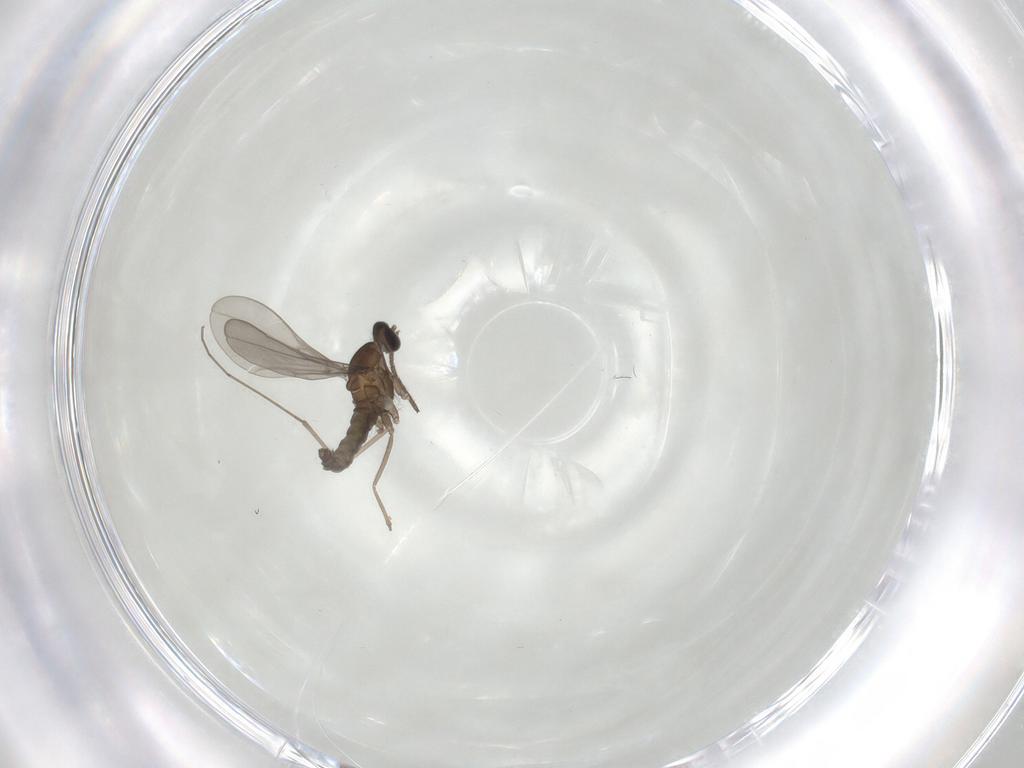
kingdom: Animalia
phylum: Arthropoda
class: Insecta
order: Diptera
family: Cecidomyiidae
